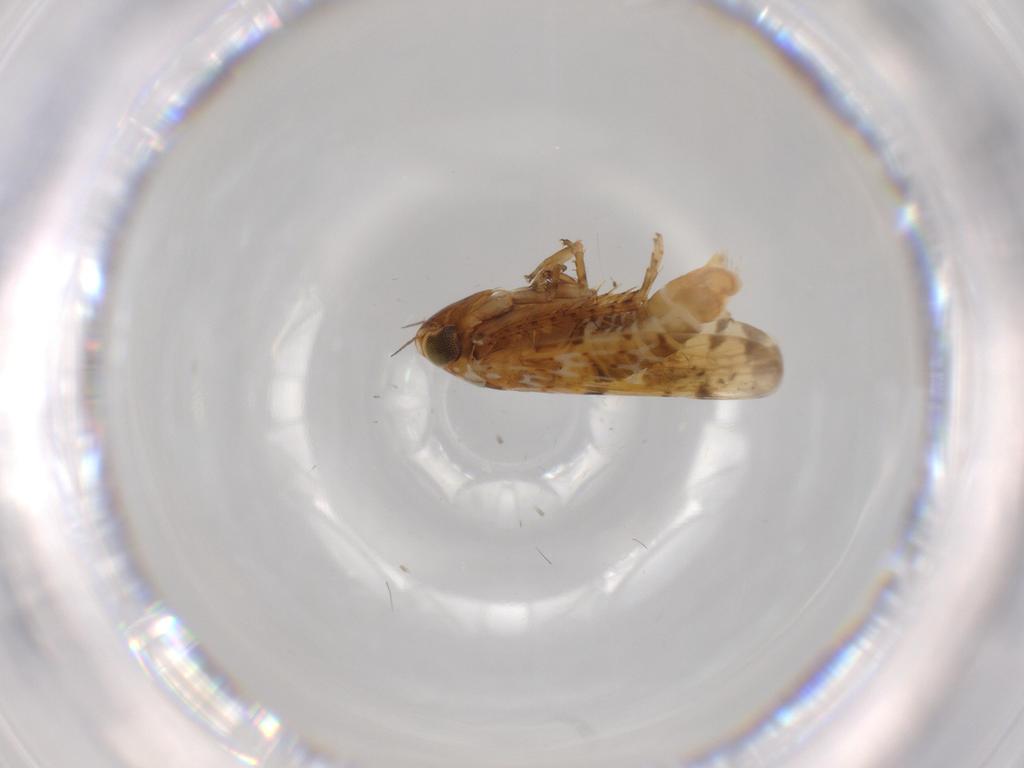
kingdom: Animalia
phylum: Arthropoda
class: Insecta
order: Hemiptera
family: Cicadellidae
